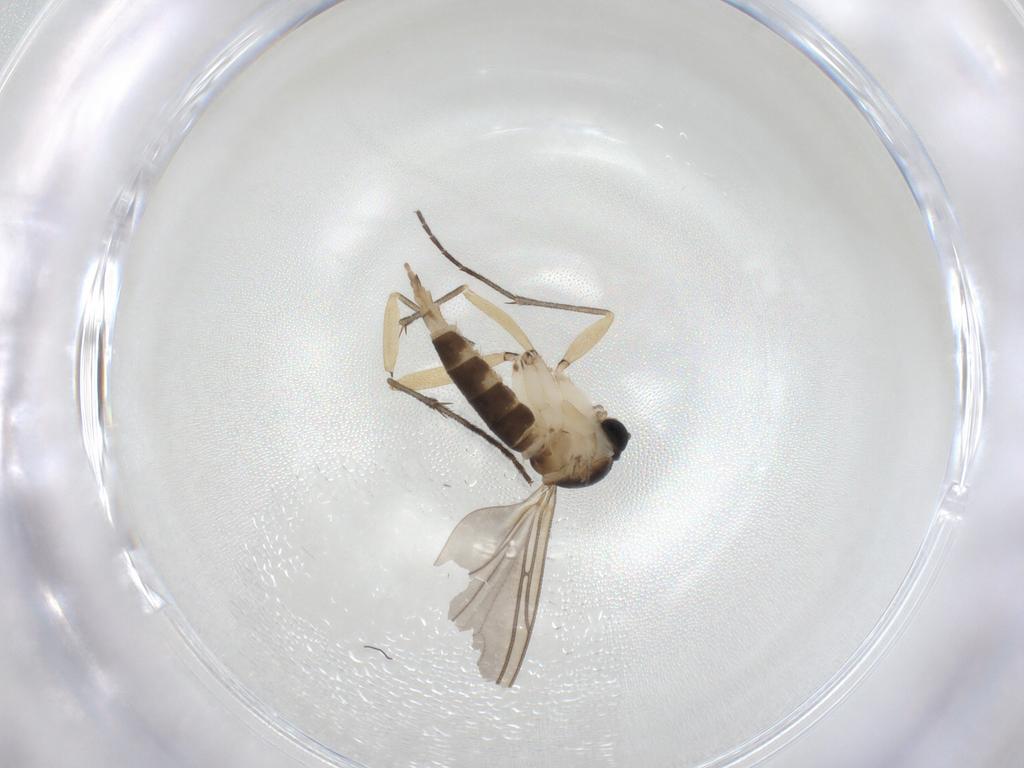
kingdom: Animalia
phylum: Arthropoda
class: Insecta
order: Diptera
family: Sciaridae
